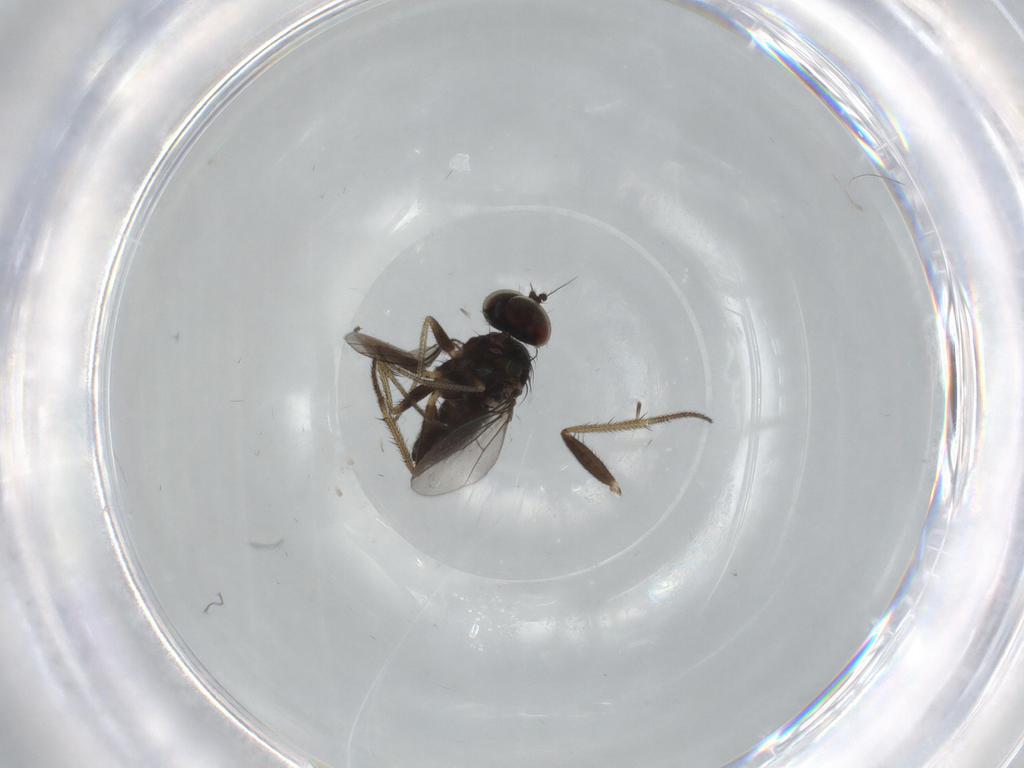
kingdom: Animalia
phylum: Arthropoda
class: Insecta
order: Diptera
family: Dolichopodidae
